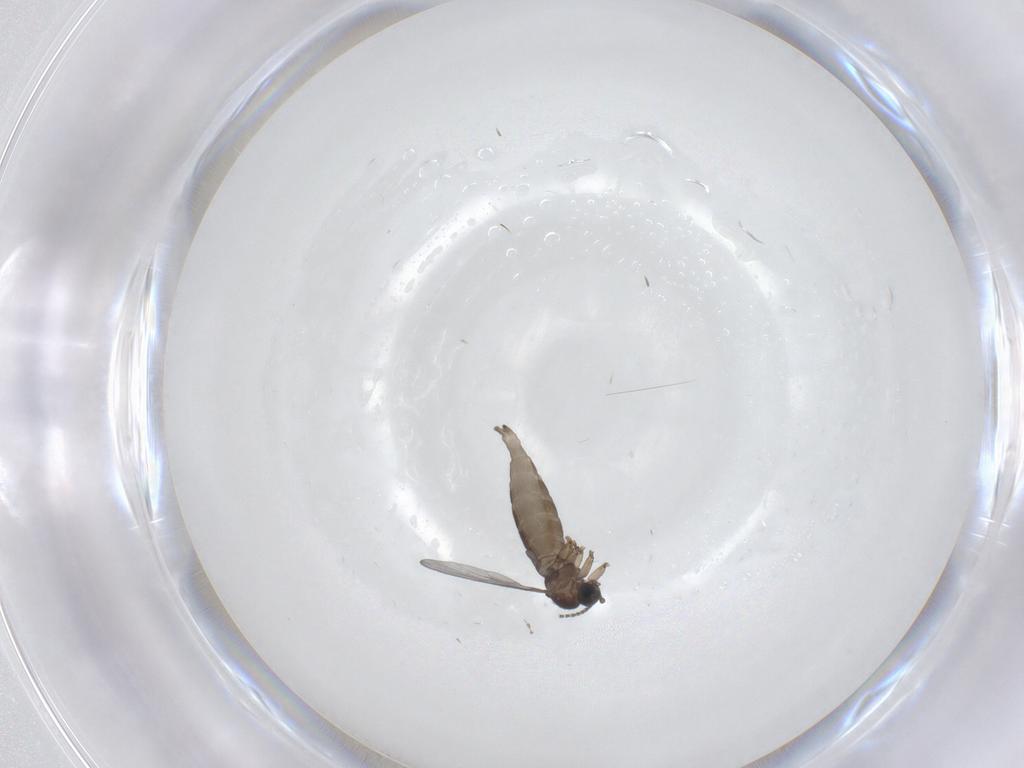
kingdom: Animalia
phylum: Arthropoda
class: Insecta
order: Diptera
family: Sciaridae
